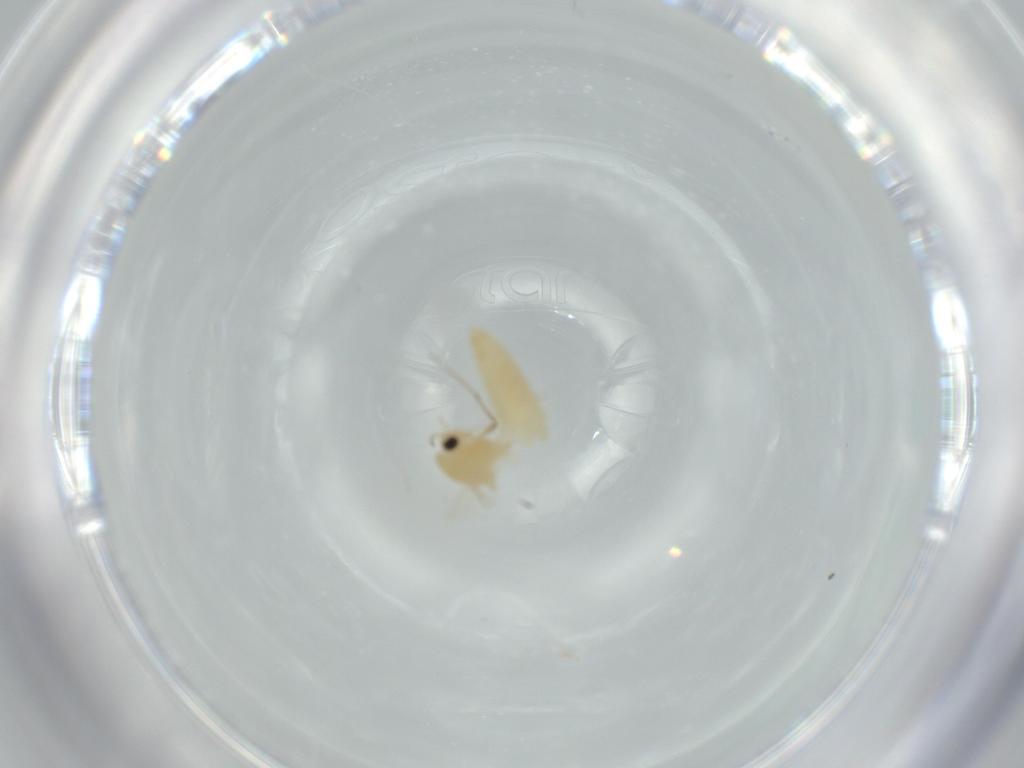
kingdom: Animalia
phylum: Arthropoda
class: Insecta
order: Diptera
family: Chironomidae
